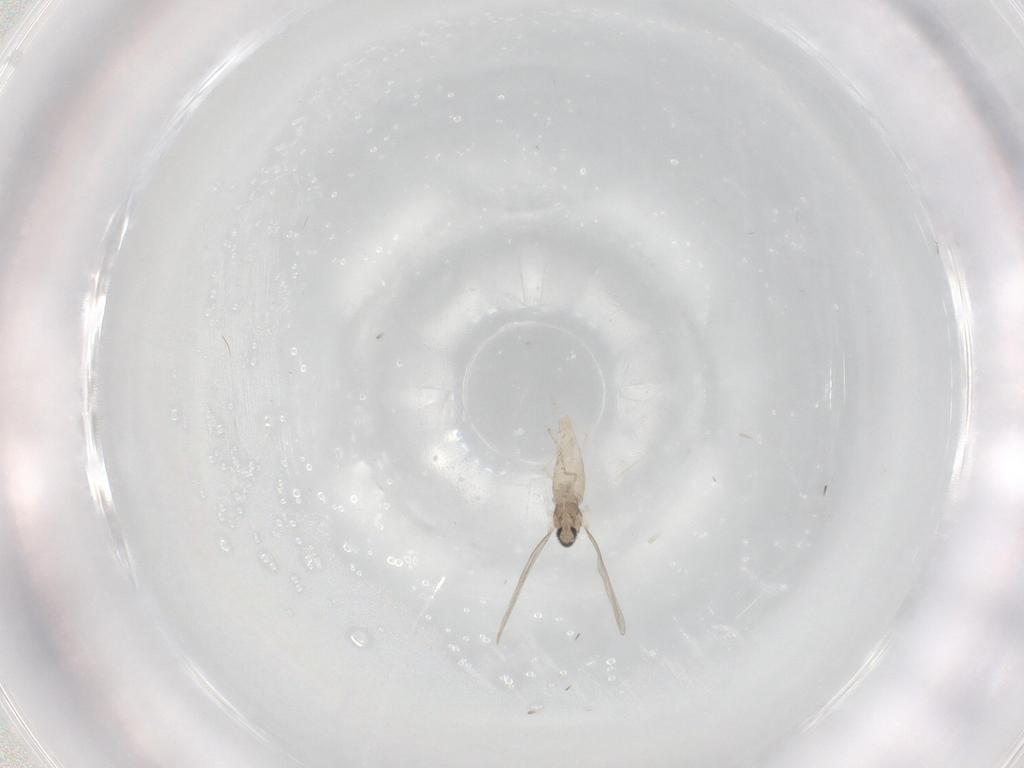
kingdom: Animalia
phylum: Arthropoda
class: Insecta
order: Diptera
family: Cecidomyiidae
